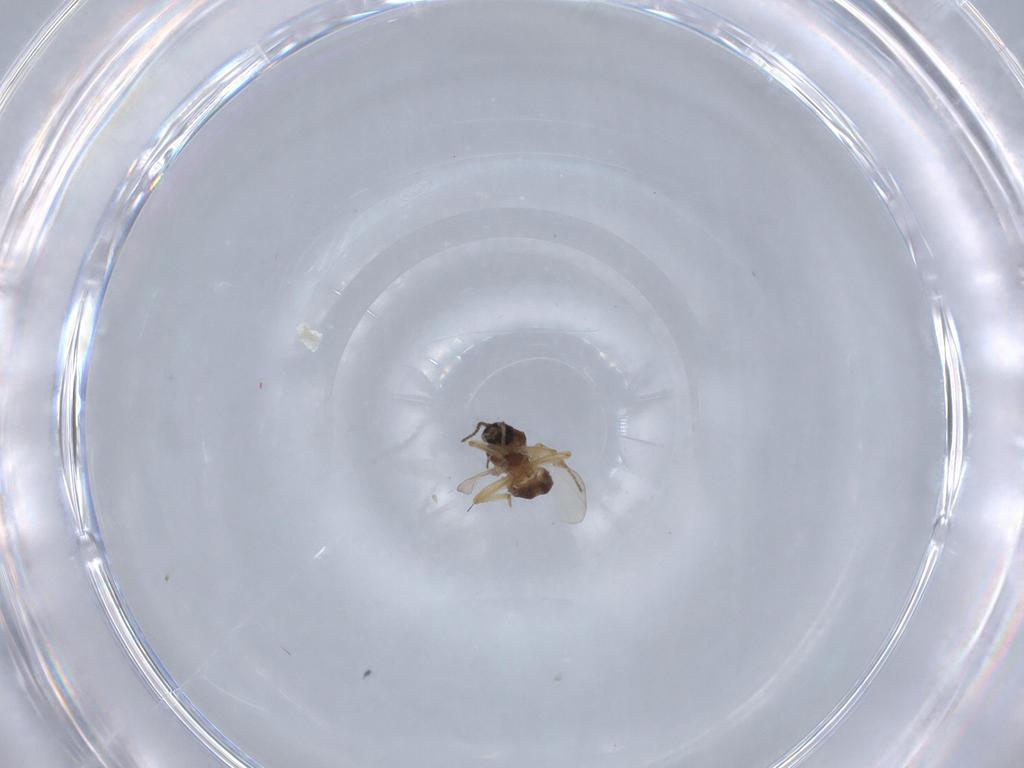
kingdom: Animalia
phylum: Arthropoda
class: Insecta
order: Diptera
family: Ceratopogonidae
